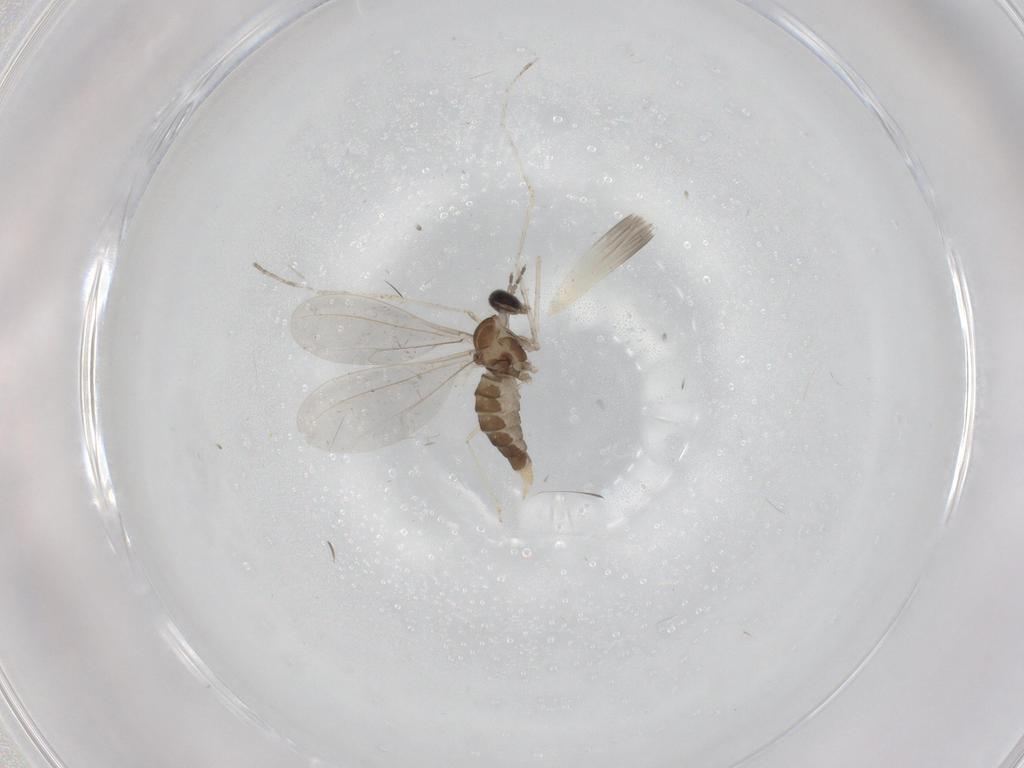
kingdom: Animalia
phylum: Arthropoda
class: Insecta
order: Diptera
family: Cecidomyiidae
